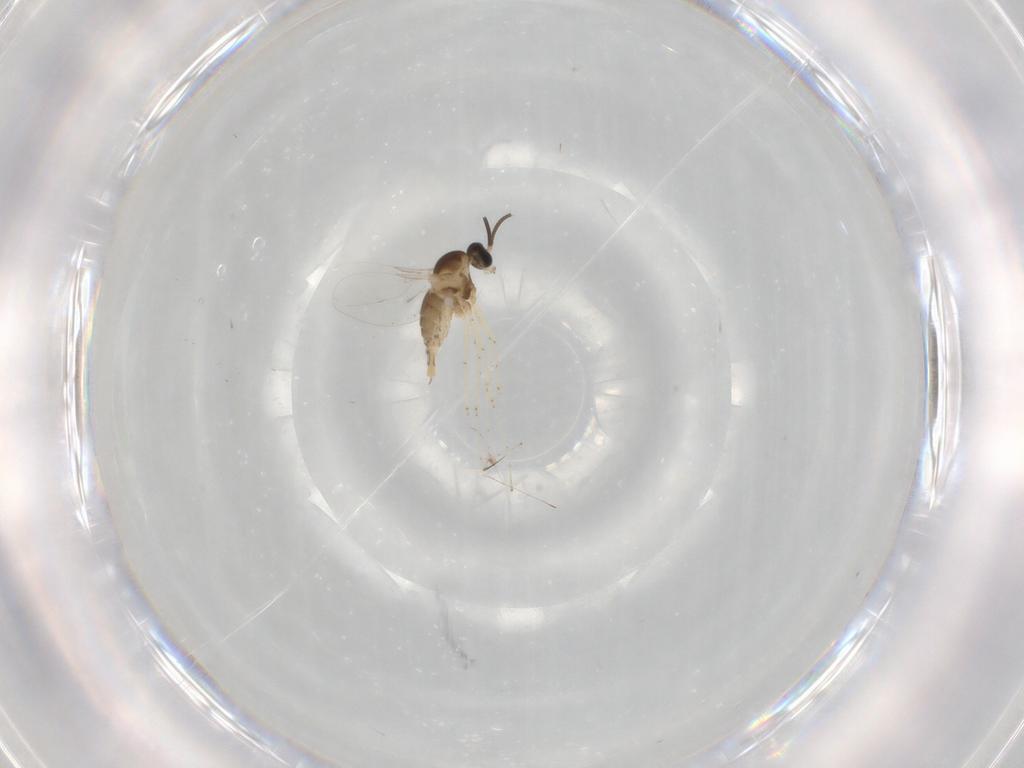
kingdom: Animalia
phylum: Arthropoda
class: Insecta
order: Diptera
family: Cecidomyiidae
